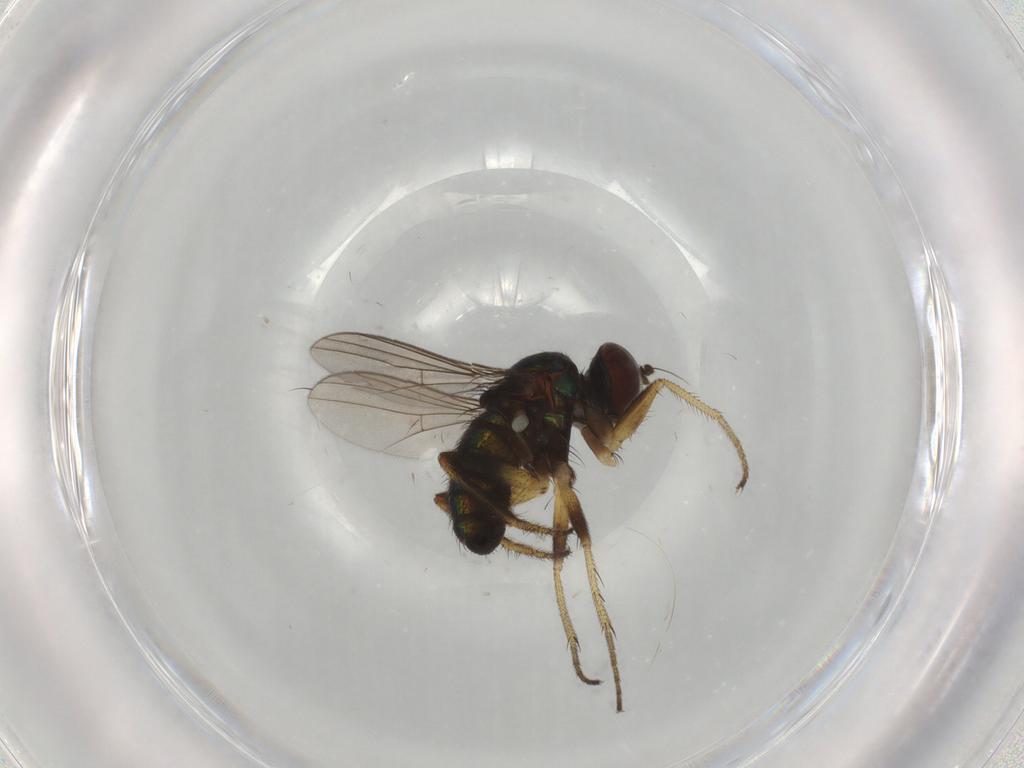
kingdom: Animalia
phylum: Arthropoda
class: Insecta
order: Diptera
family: Dolichopodidae
